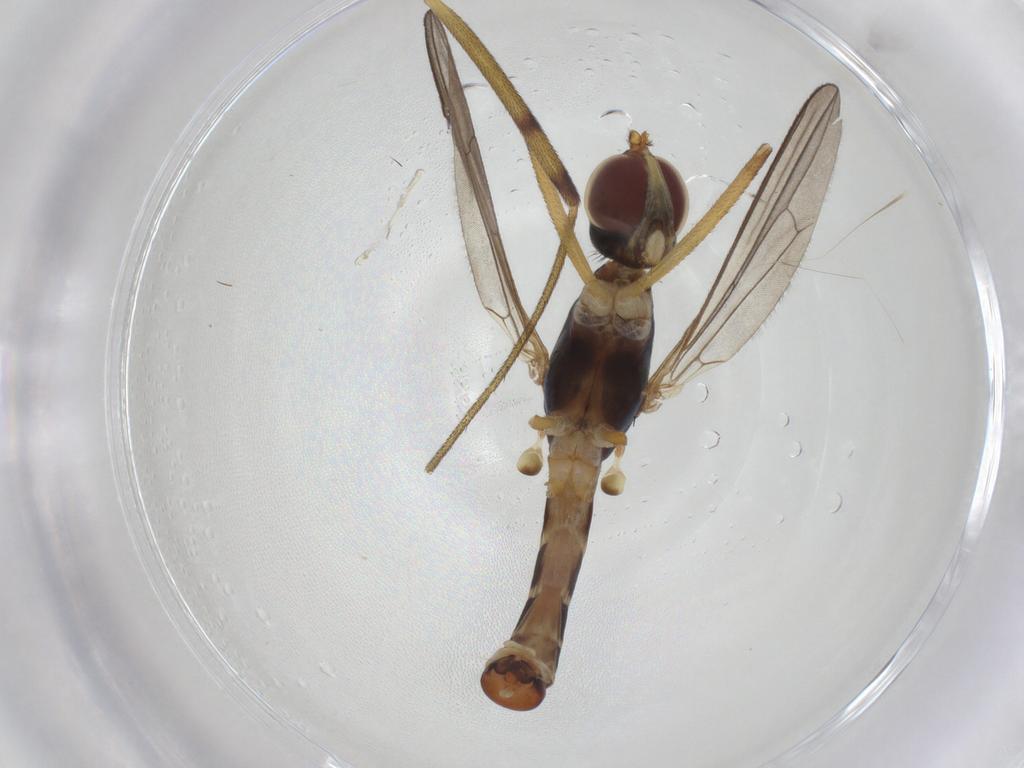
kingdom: Animalia
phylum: Arthropoda
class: Insecta
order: Diptera
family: Micropezidae
